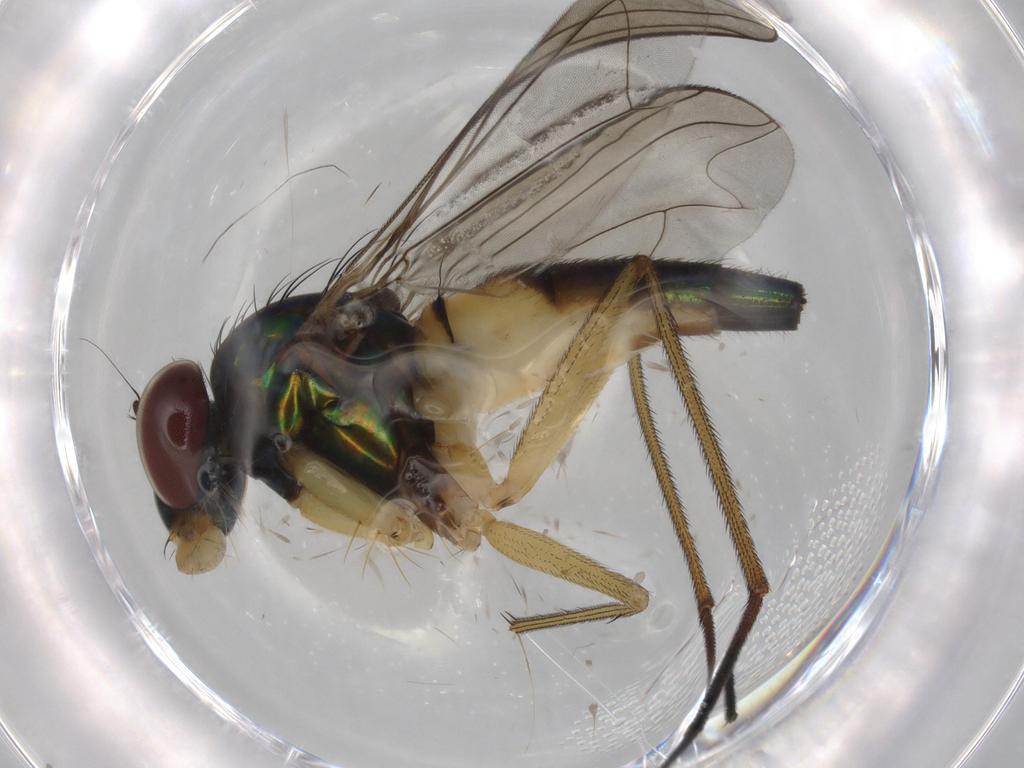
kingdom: Animalia
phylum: Arthropoda
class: Insecta
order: Diptera
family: Dolichopodidae
